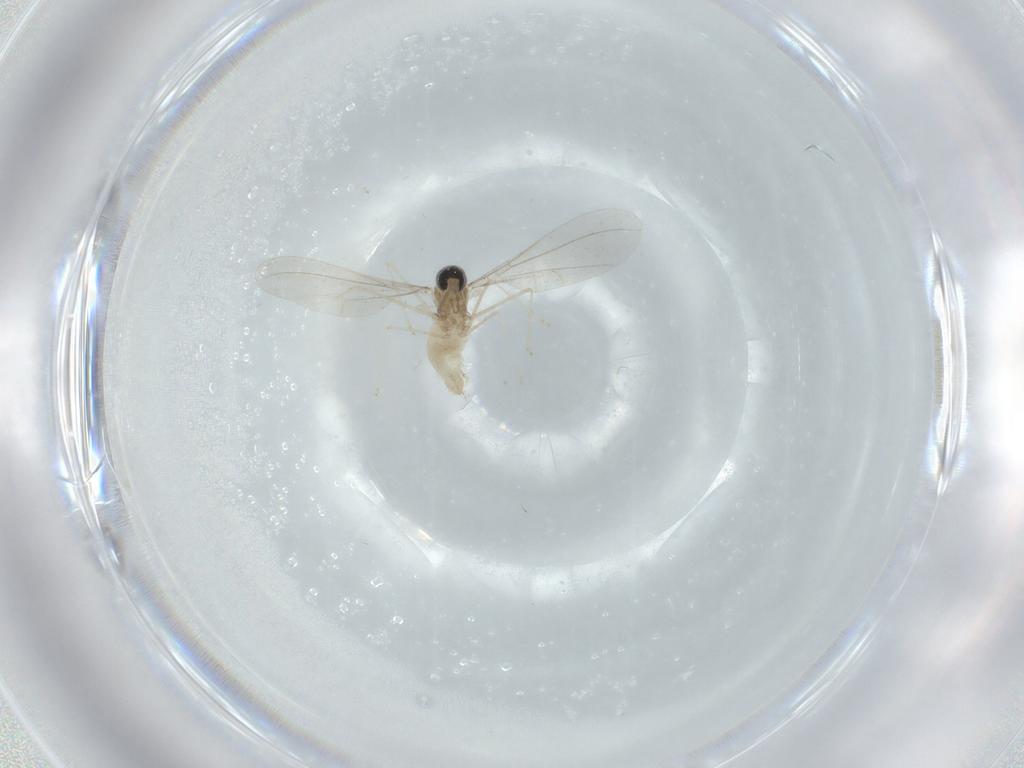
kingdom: Animalia
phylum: Arthropoda
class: Insecta
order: Diptera
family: Cecidomyiidae
